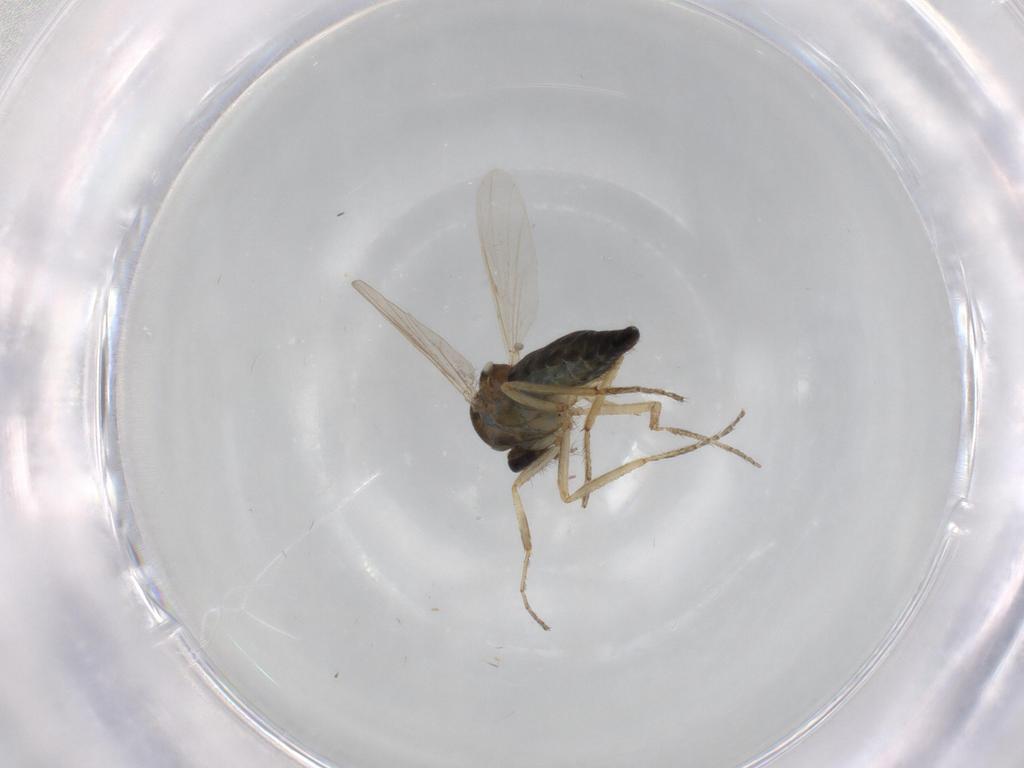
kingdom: Animalia
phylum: Arthropoda
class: Insecta
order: Diptera
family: Ceratopogonidae
